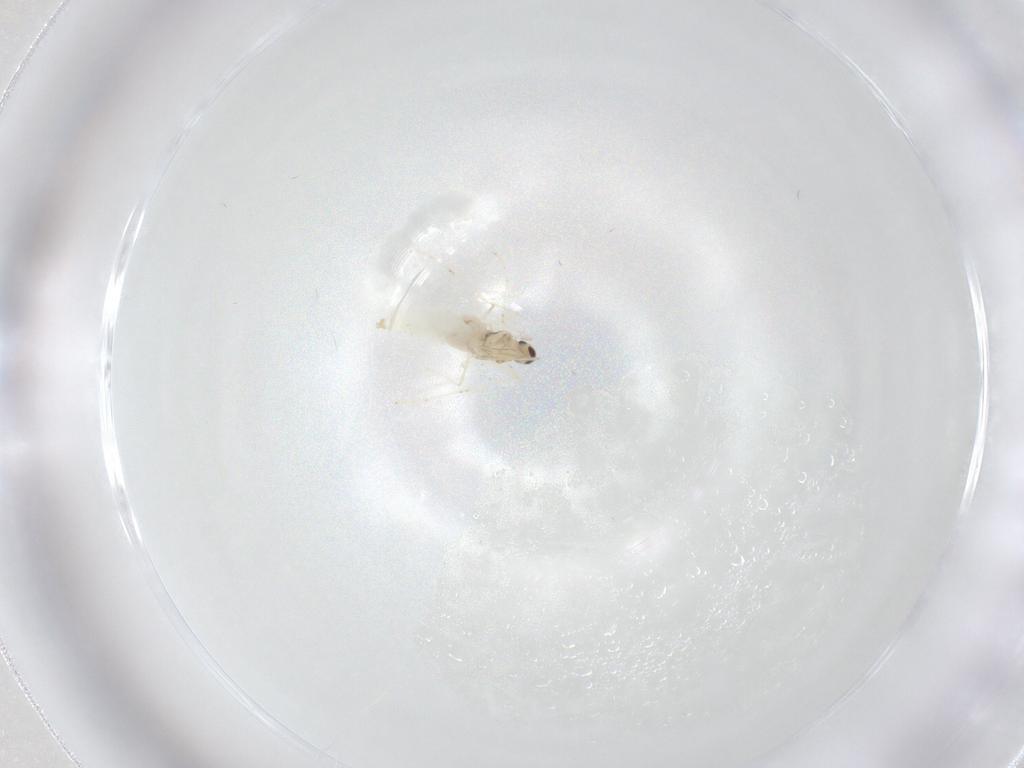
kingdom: Animalia
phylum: Arthropoda
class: Insecta
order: Diptera
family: Cecidomyiidae
